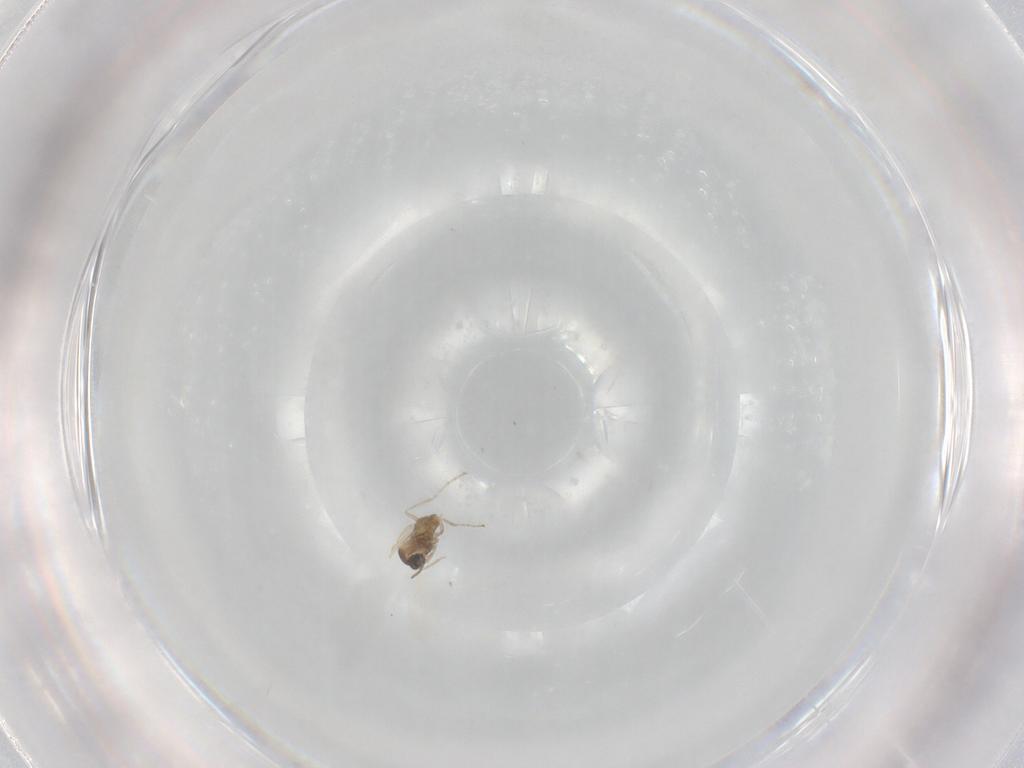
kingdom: Animalia
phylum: Arthropoda
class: Insecta
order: Diptera
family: Cecidomyiidae
